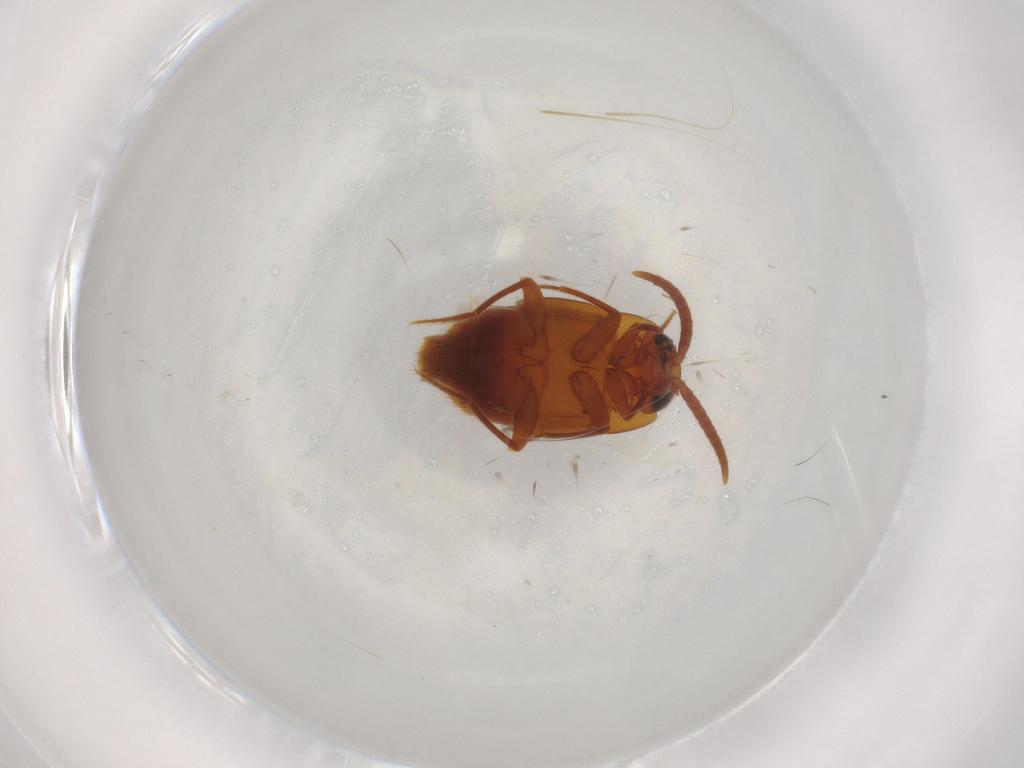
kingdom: Animalia
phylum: Arthropoda
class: Insecta
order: Coleoptera
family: Staphylinidae
